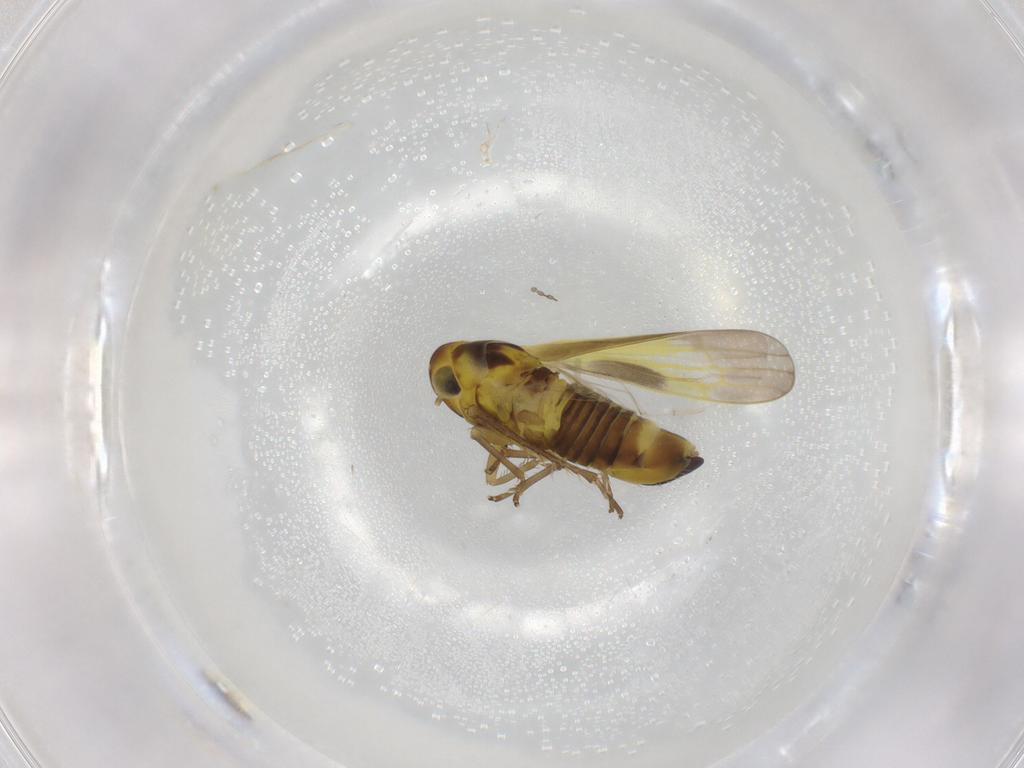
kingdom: Animalia
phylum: Arthropoda
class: Insecta
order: Hemiptera
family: Cicadellidae
